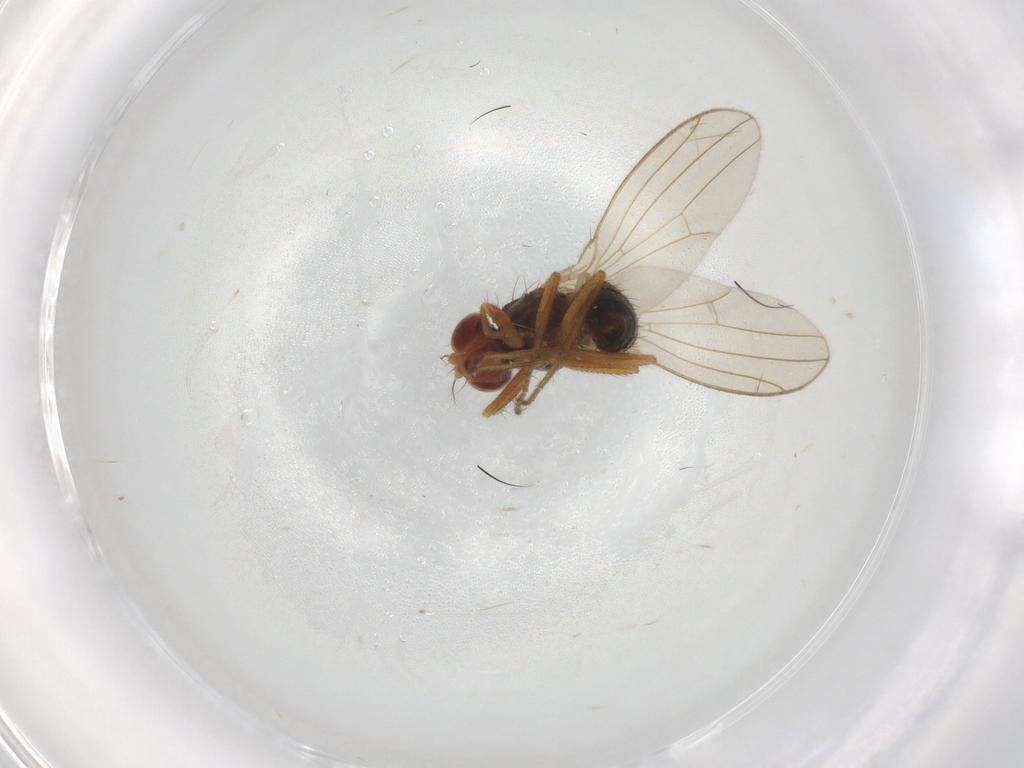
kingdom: Animalia
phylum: Arthropoda
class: Insecta
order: Diptera
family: Drosophilidae
